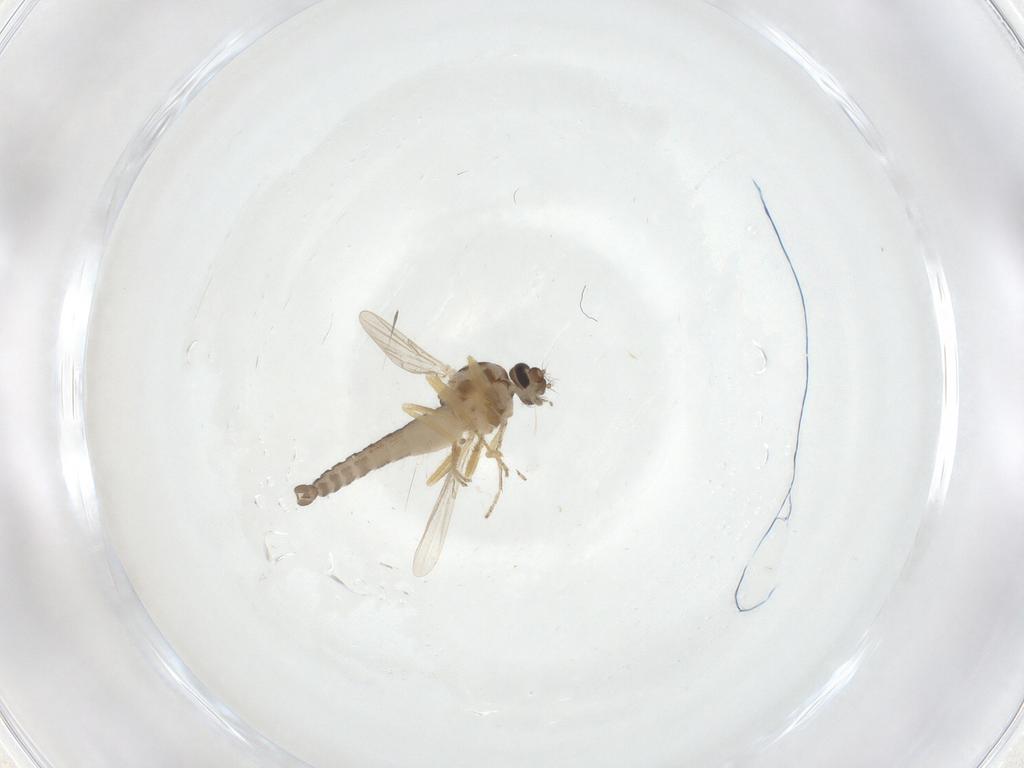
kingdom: Animalia
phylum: Arthropoda
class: Insecta
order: Diptera
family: Ceratopogonidae
